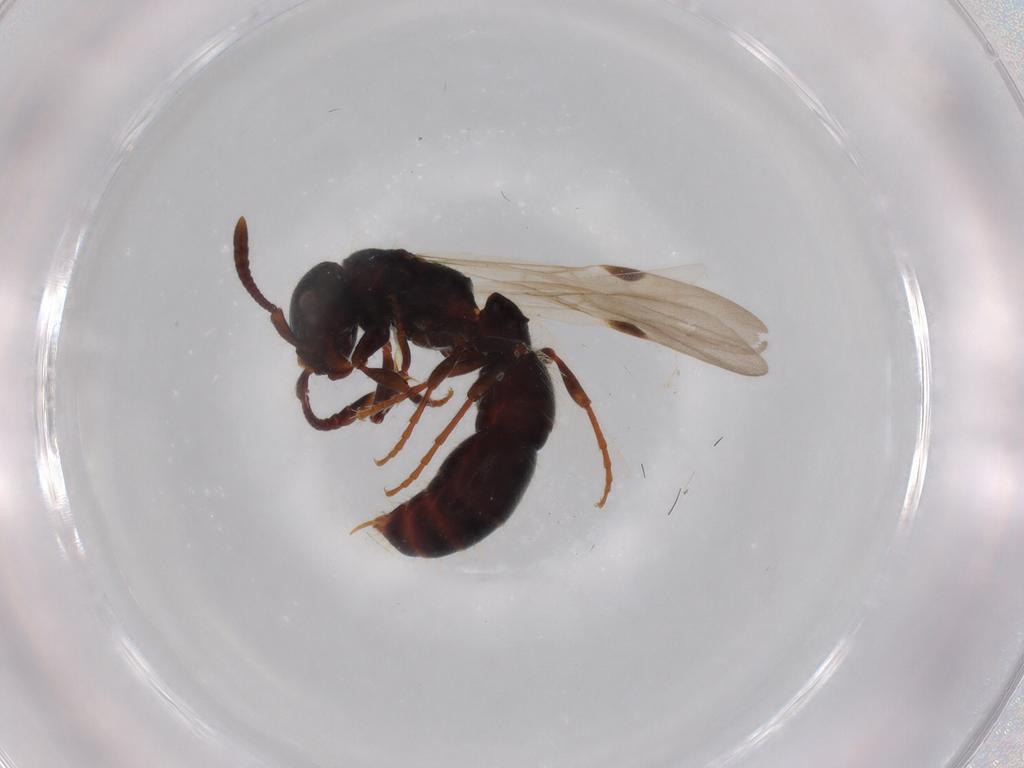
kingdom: Animalia
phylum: Arthropoda
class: Insecta
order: Hymenoptera
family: Formicidae
